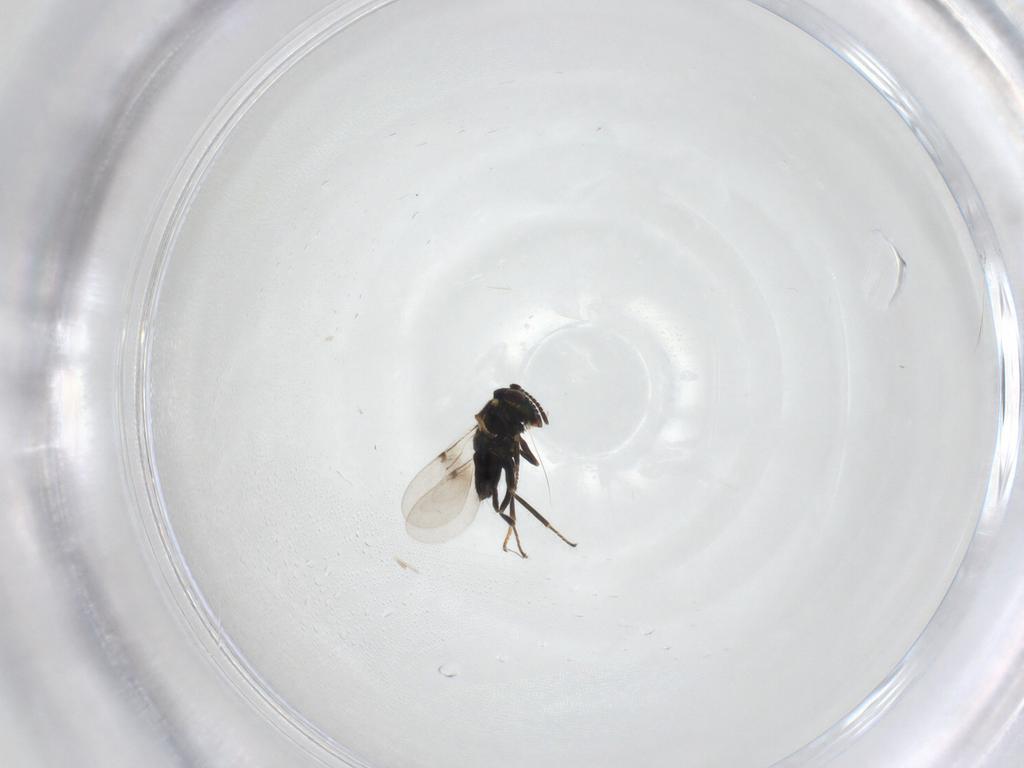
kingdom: Animalia
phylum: Arthropoda
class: Insecta
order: Hymenoptera
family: Encyrtidae
